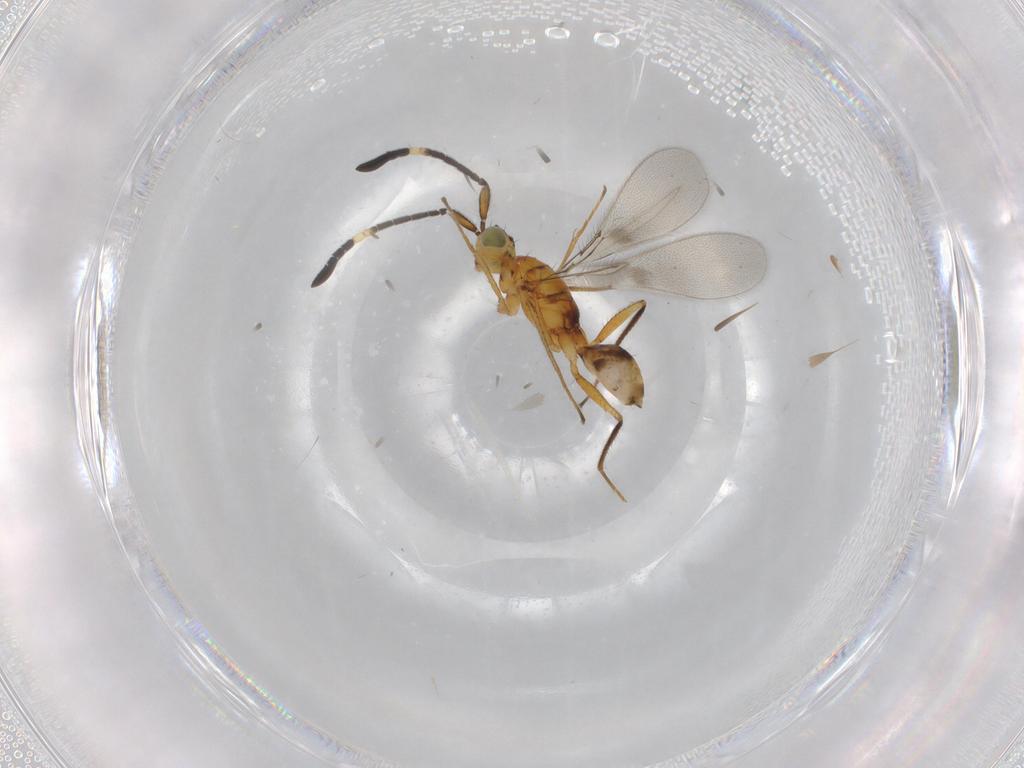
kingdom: Animalia
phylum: Arthropoda
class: Insecta
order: Hymenoptera
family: Mymaridae
